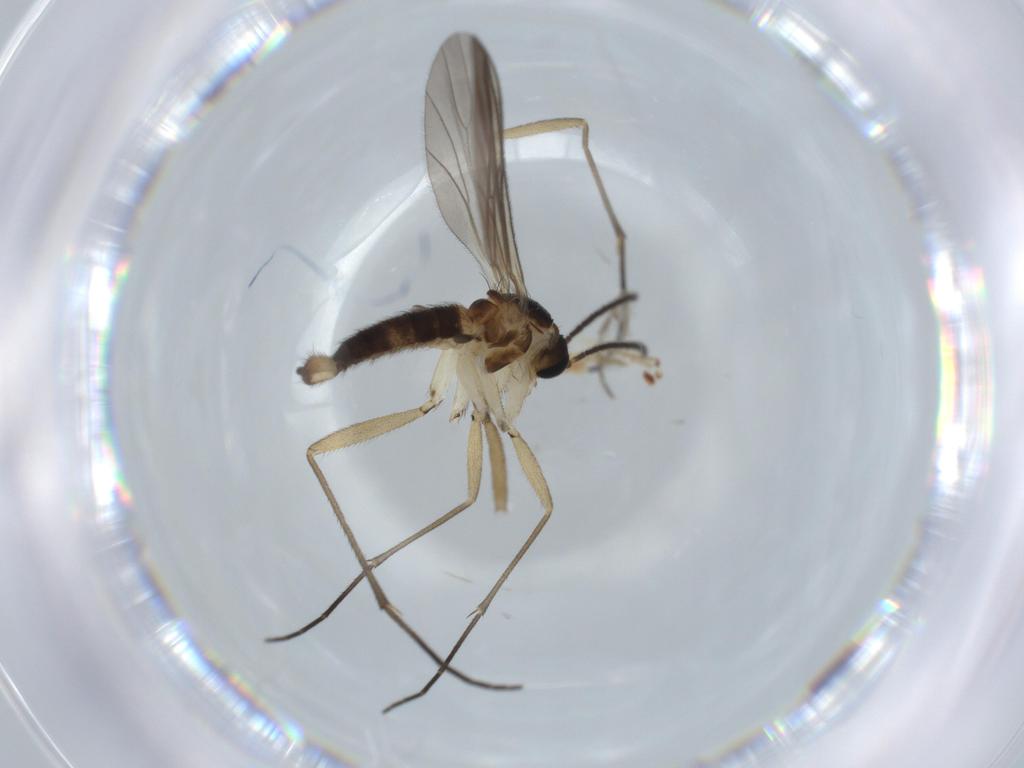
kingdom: Animalia
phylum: Arthropoda
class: Insecta
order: Diptera
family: Sciaridae
